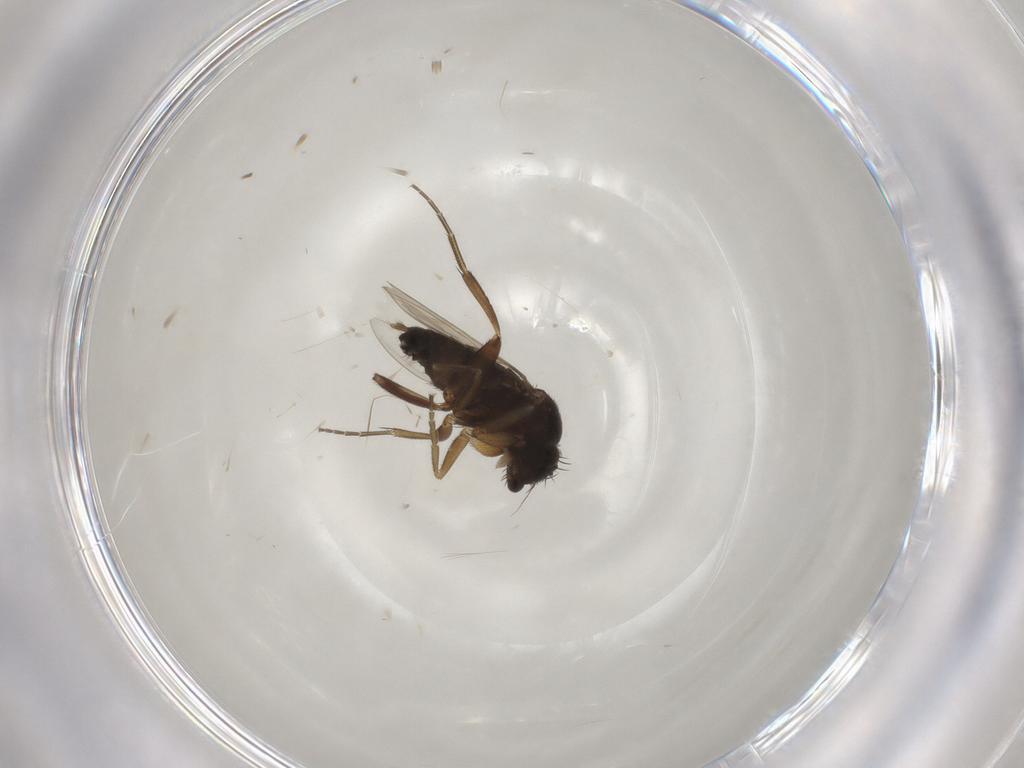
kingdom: Animalia
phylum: Arthropoda
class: Insecta
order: Diptera
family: Phoridae
